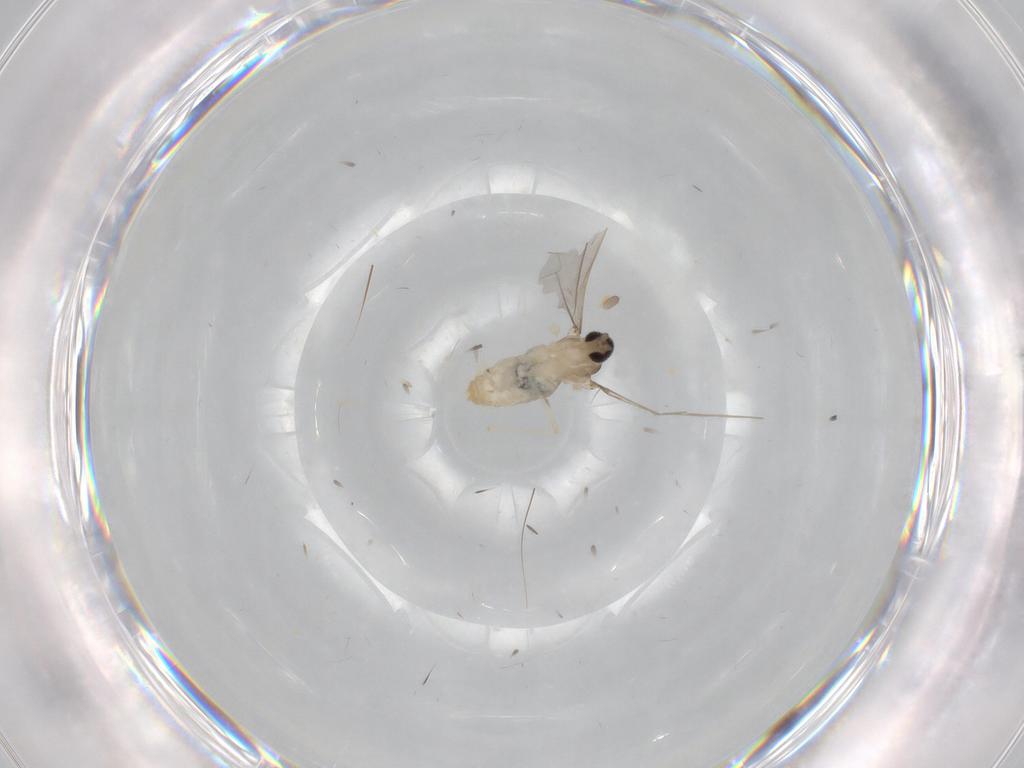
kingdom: Animalia
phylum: Arthropoda
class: Insecta
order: Diptera
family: Cecidomyiidae
